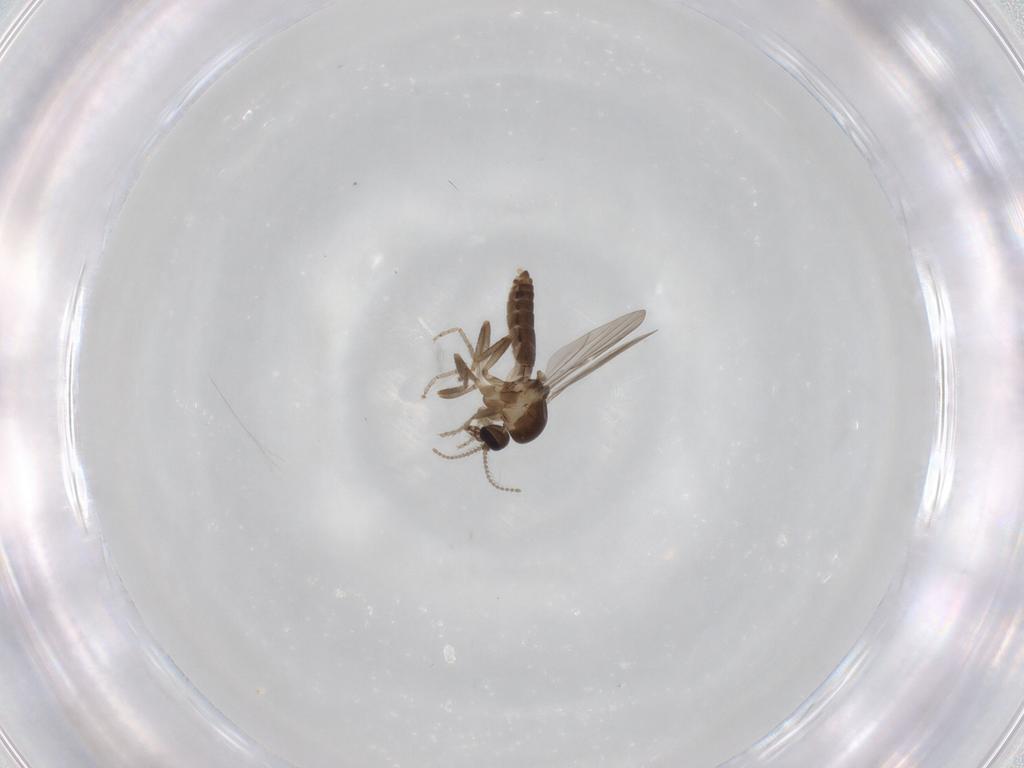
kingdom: Animalia
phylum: Arthropoda
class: Insecta
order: Diptera
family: Ceratopogonidae
